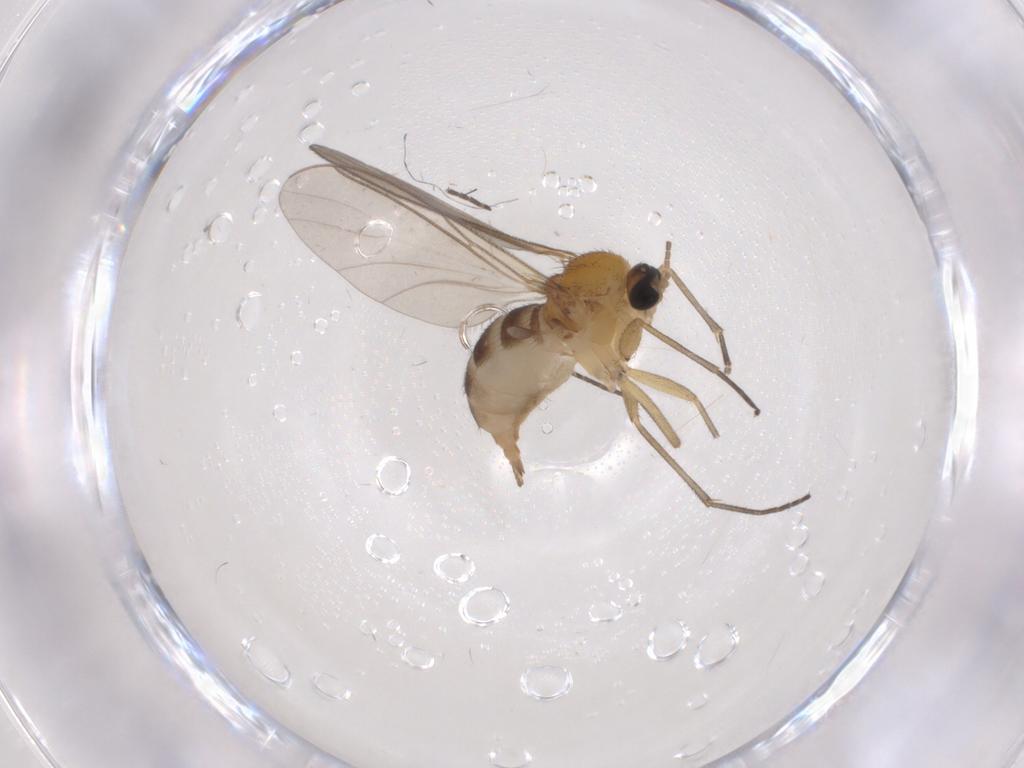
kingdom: Animalia
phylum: Arthropoda
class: Insecta
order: Diptera
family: Sciaridae
